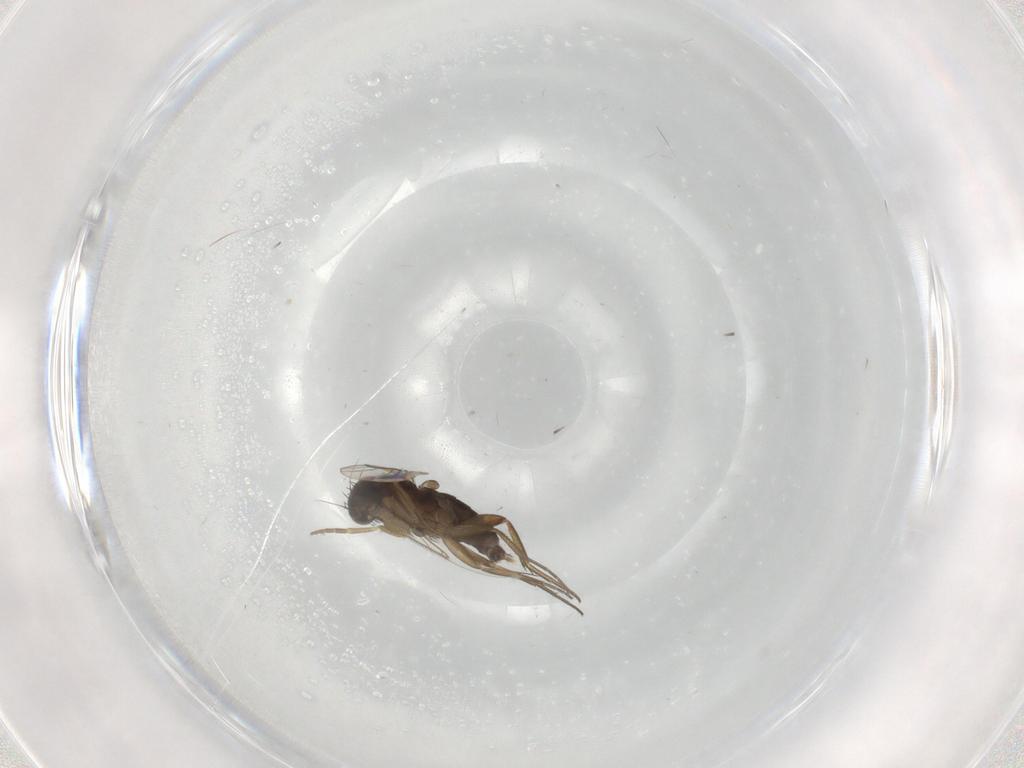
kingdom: Animalia
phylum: Arthropoda
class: Insecta
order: Diptera
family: Phoridae
